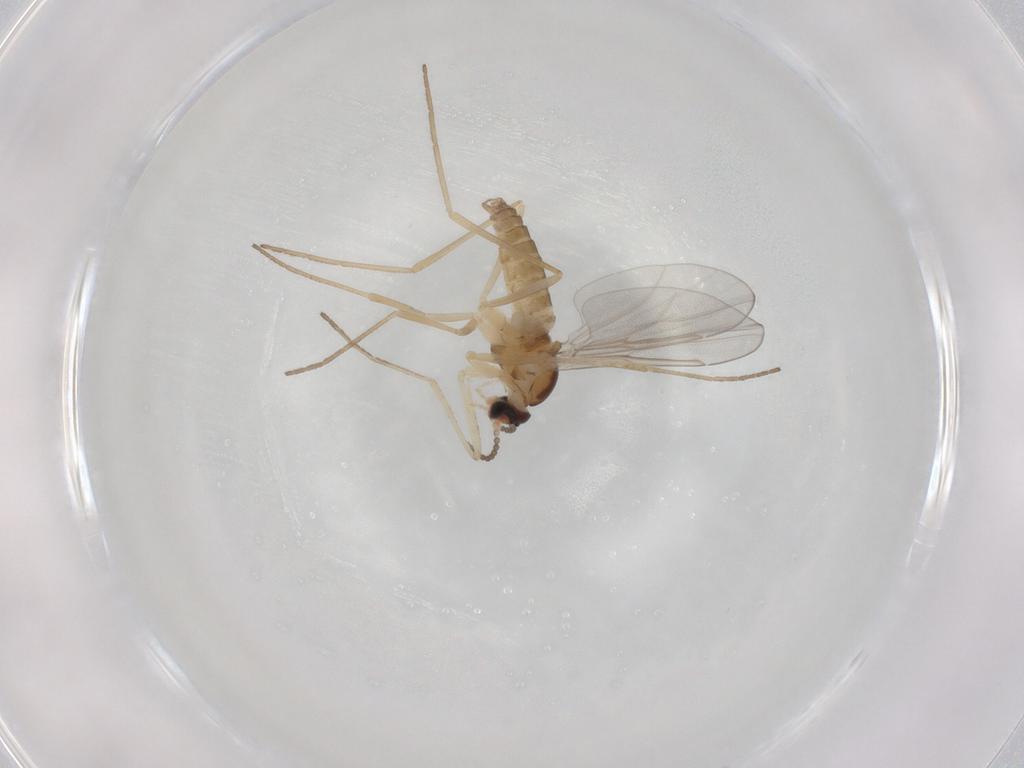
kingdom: Animalia
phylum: Arthropoda
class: Insecta
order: Diptera
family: Cecidomyiidae
